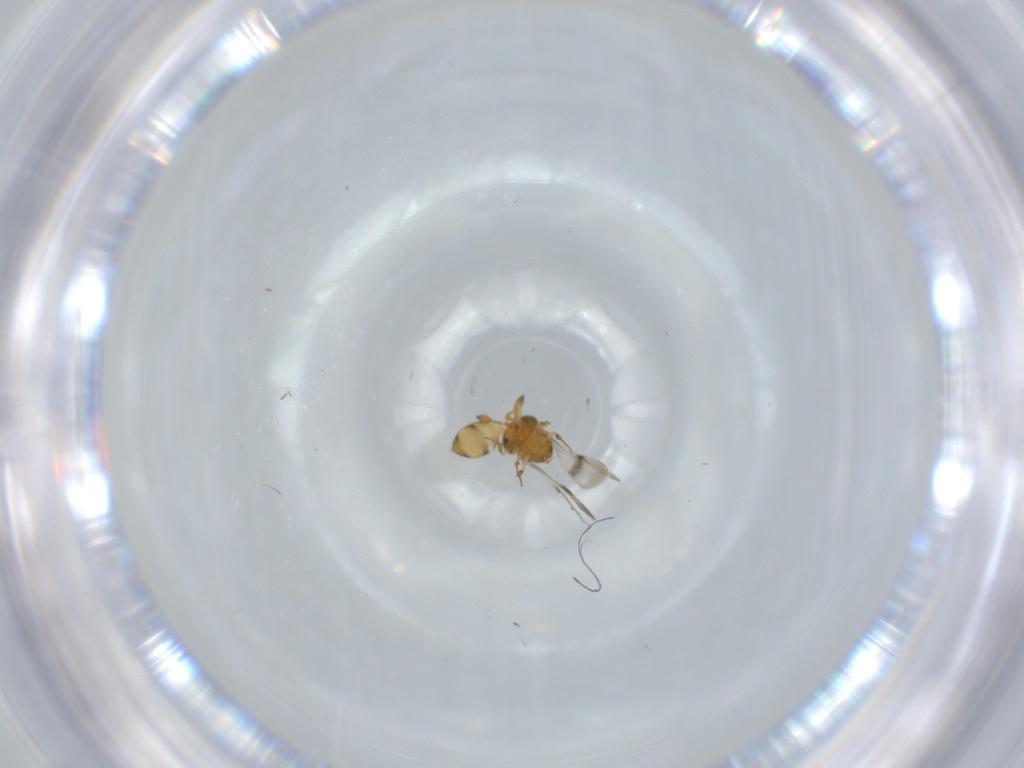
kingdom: Animalia
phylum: Arthropoda
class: Insecta
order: Hymenoptera
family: Scelionidae
